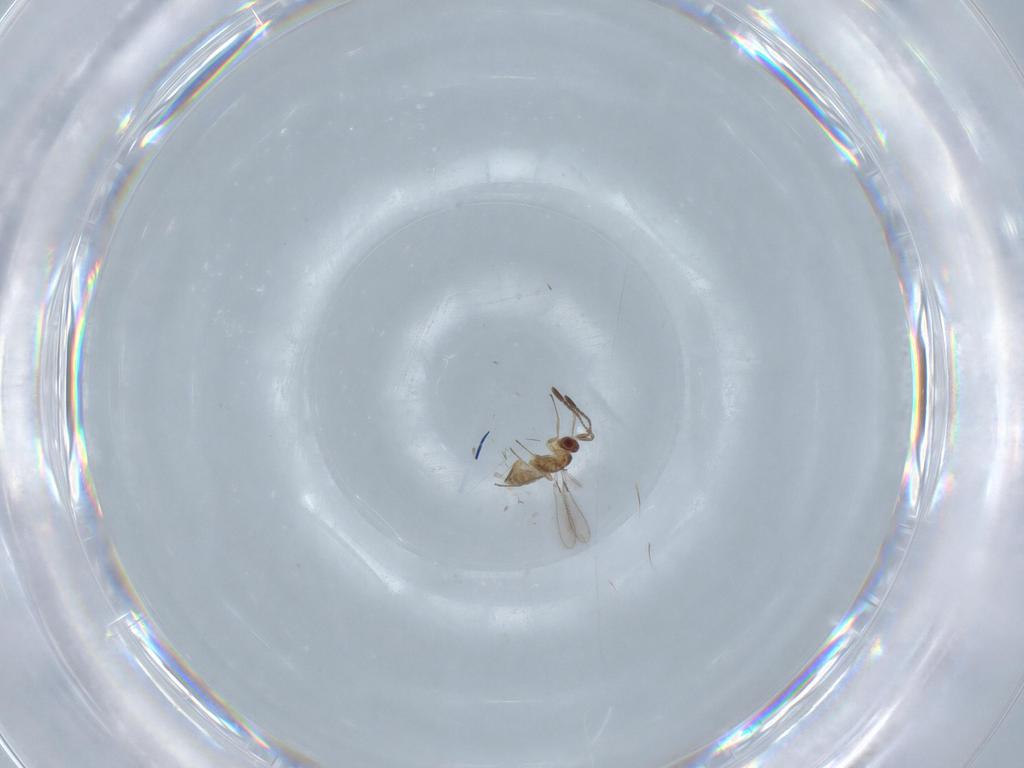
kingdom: Animalia
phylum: Arthropoda
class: Insecta
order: Hymenoptera
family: Mymaridae
